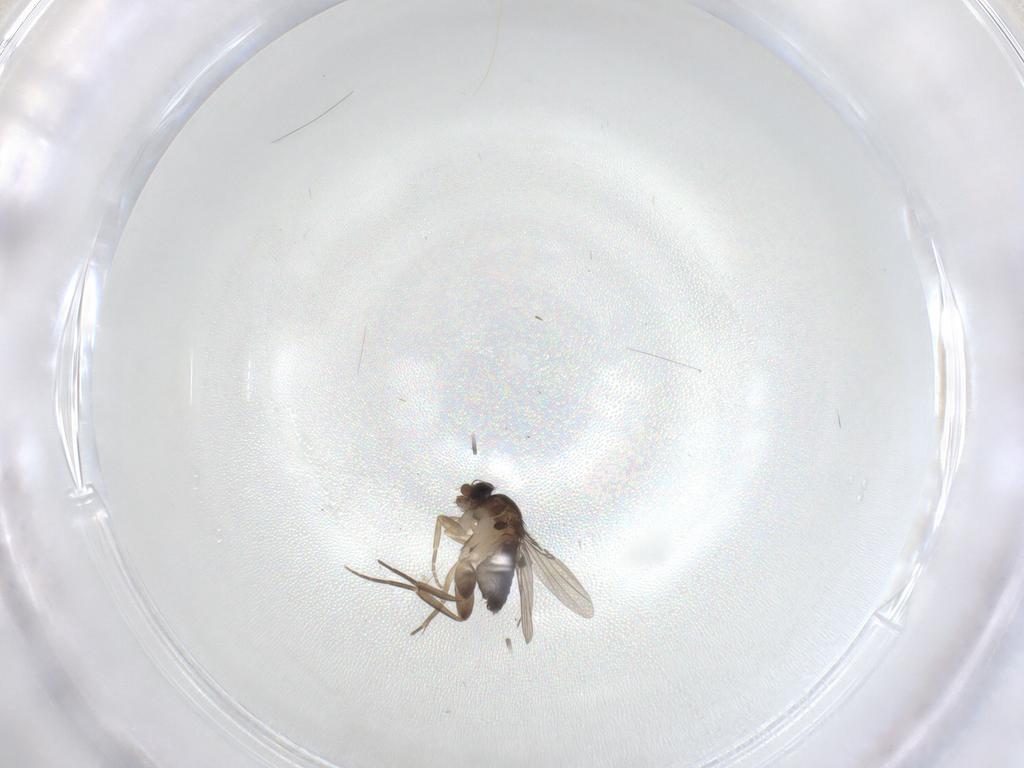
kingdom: Animalia
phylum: Arthropoda
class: Insecta
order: Diptera
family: Phoridae
